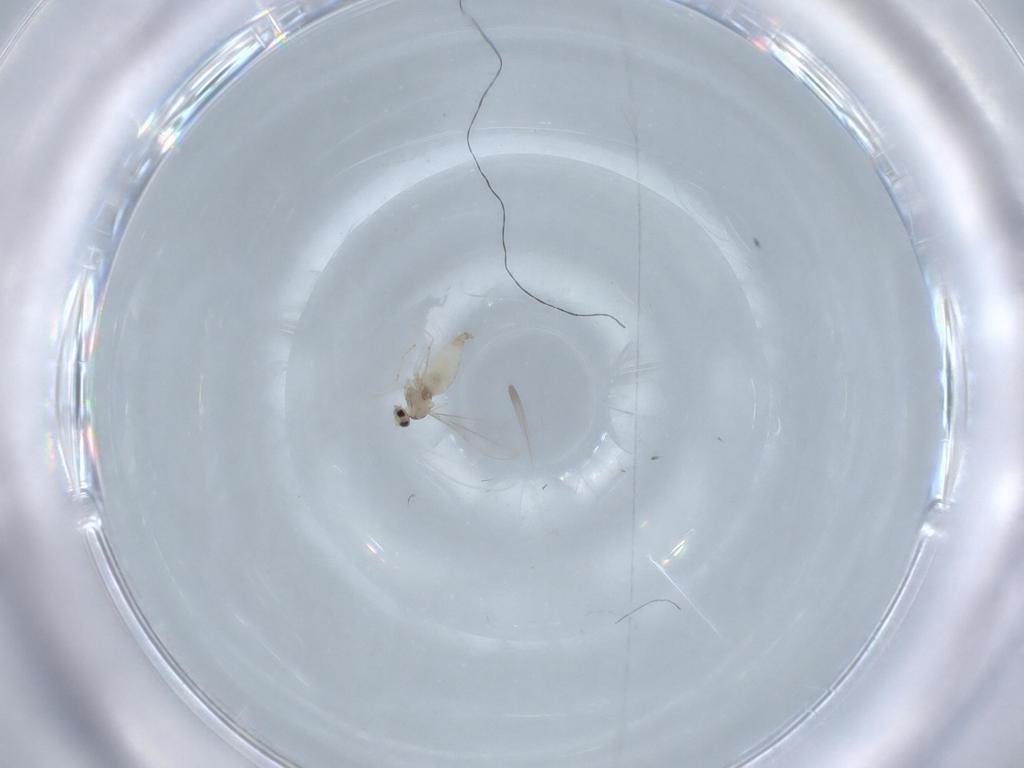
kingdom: Animalia
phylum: Arthropoda
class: Insecta
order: Diptera
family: Cecidomyiidae
